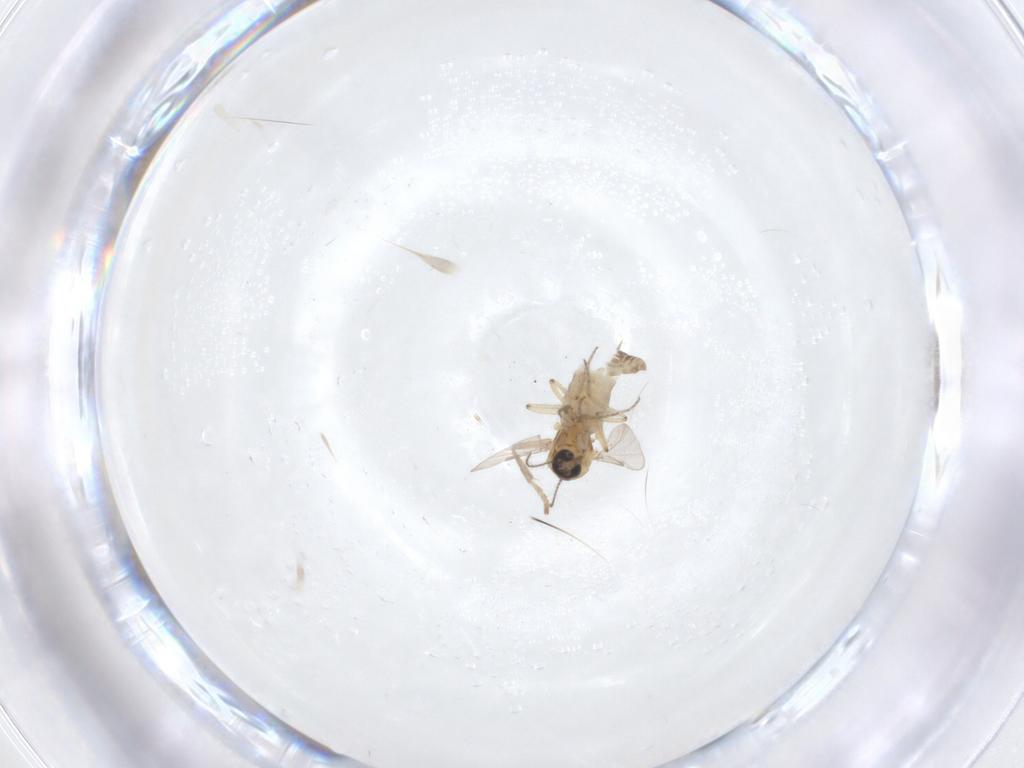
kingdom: Animalia
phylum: Arthropoda
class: Insecta
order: Diptera
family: Ceratopogonidae
